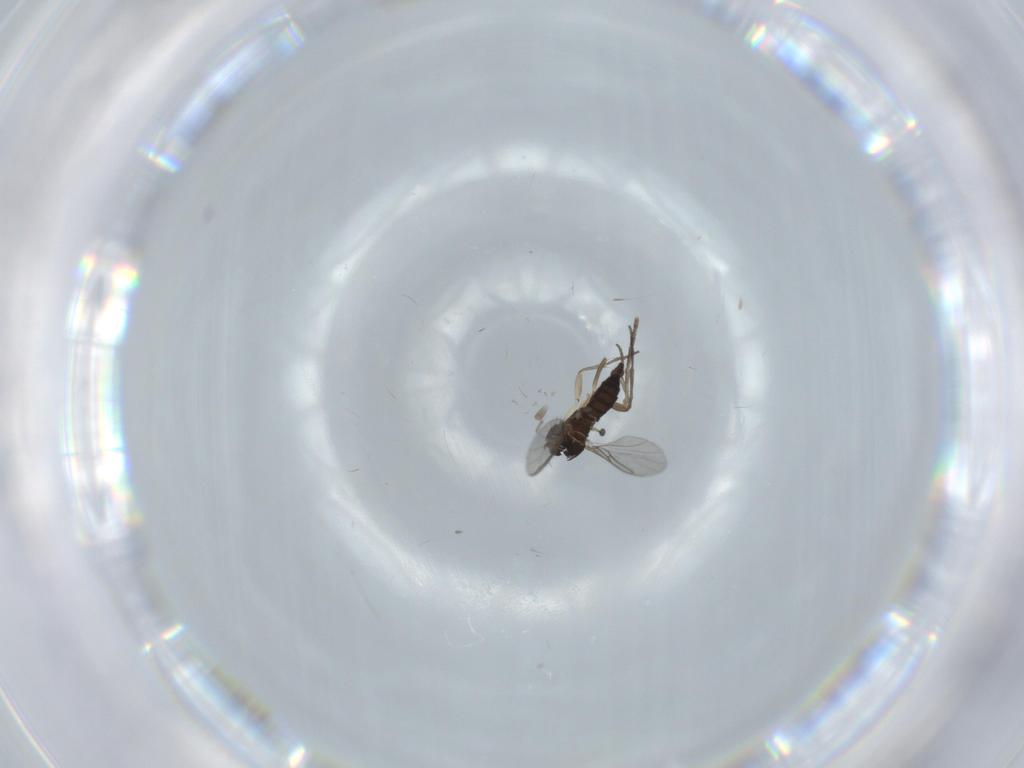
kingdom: Animalia
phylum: Arthropoda
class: Insecta
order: Diptera
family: Sciaridae
